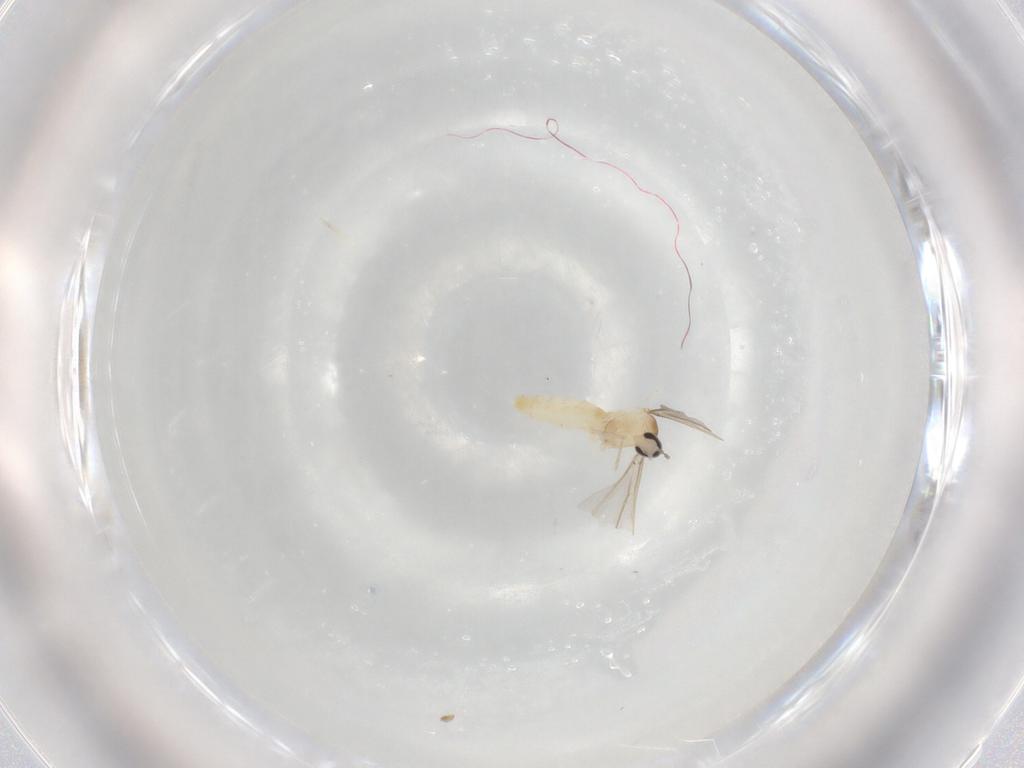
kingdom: Animalia
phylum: Arthropoda
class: Insecta
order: Diptera
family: Cecidomyiidae
